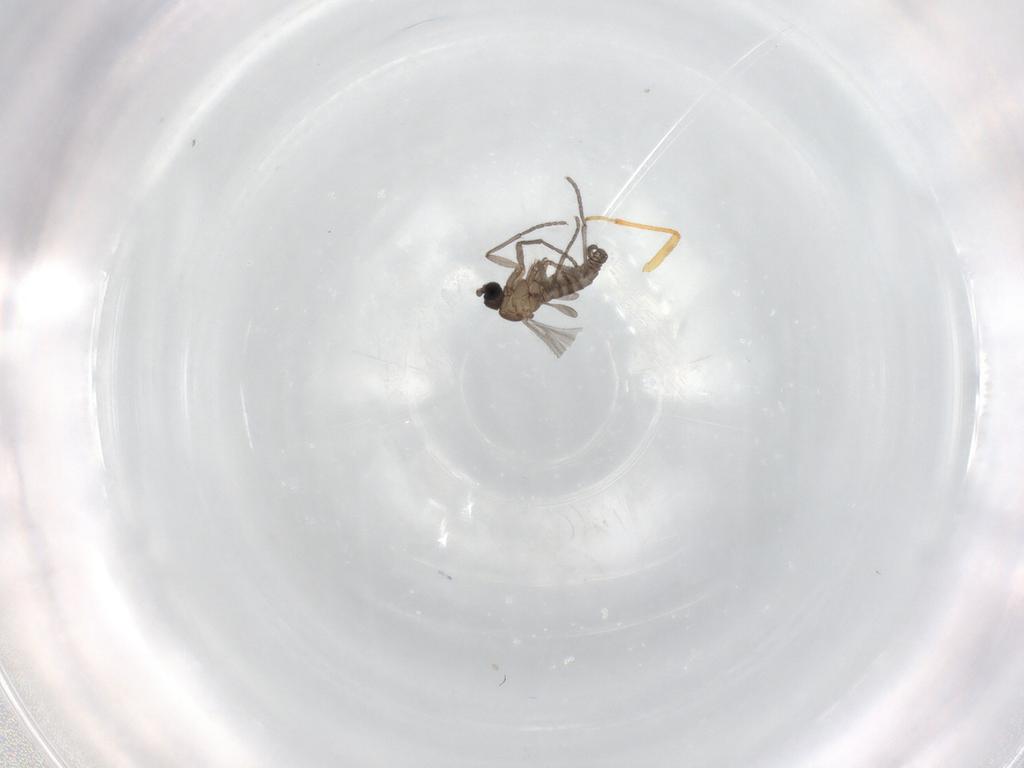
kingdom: Animalia
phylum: Arthropoda
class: Insecta
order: Diptera
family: Sciaridae
